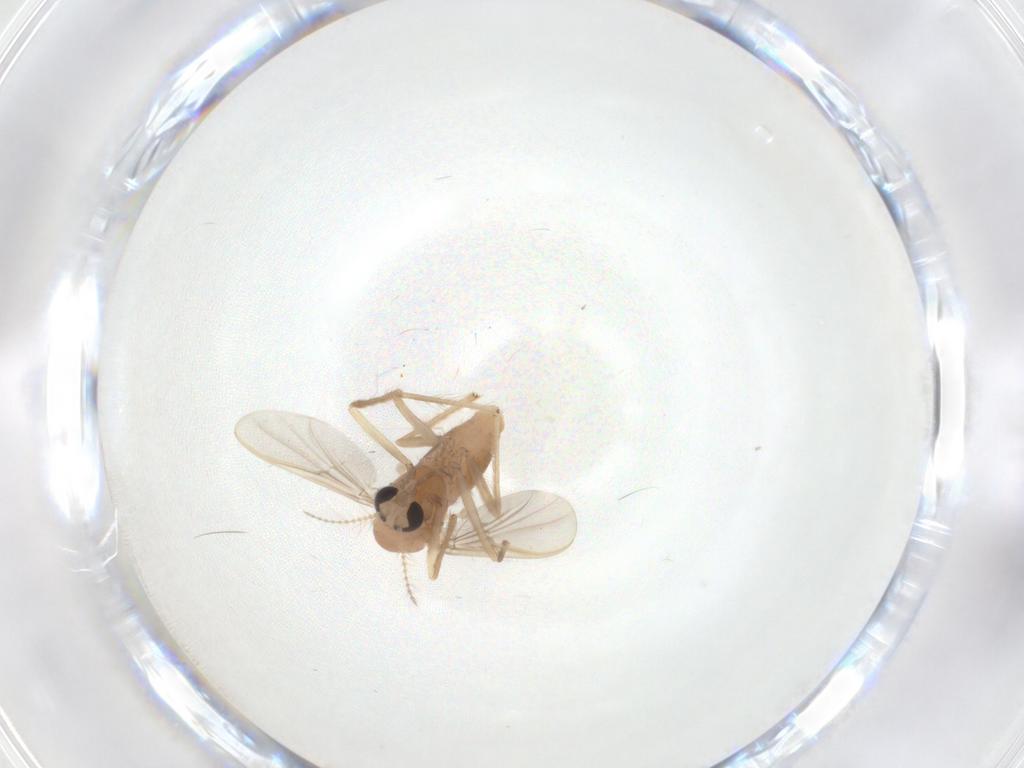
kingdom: Animalia
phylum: Arthropoda
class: Insecta
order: Diptera
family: Chironomidae
